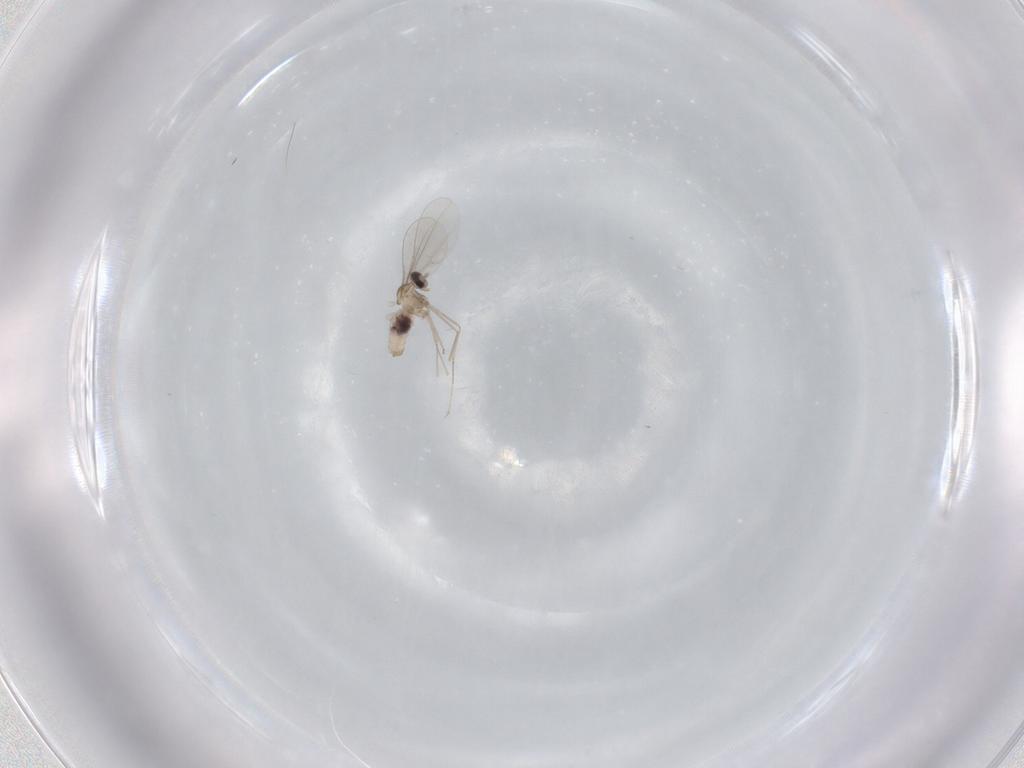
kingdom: Animalia
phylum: Arthropoda
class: Insecta
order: Diptera
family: Cecidomyiidae
